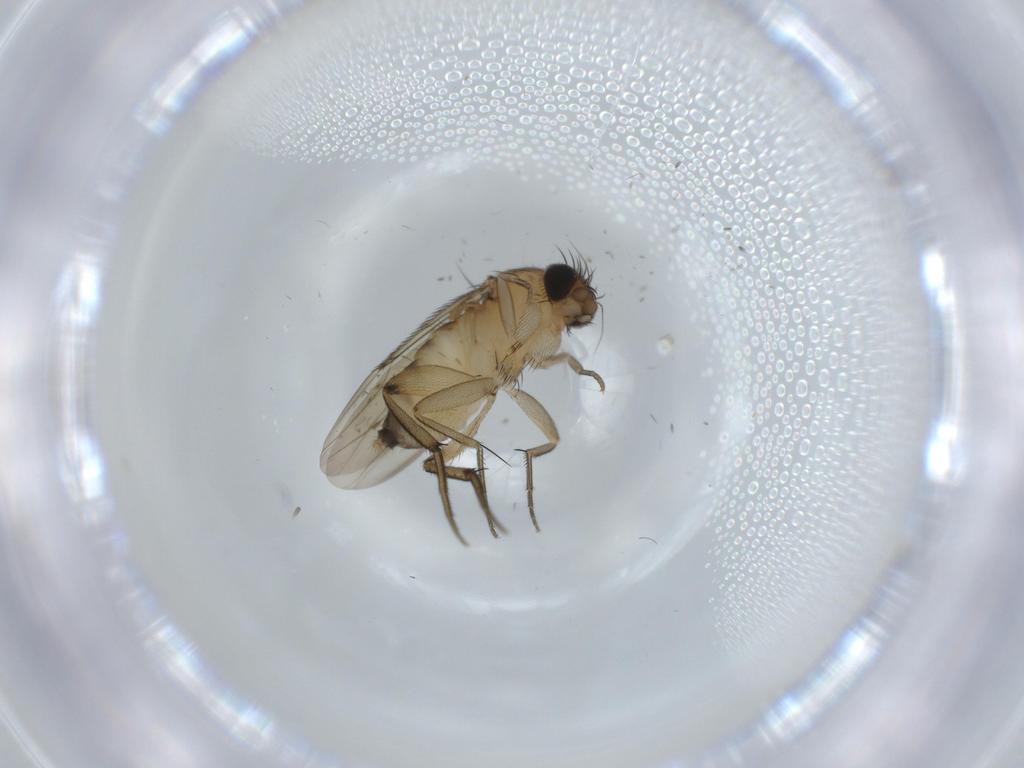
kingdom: Animalia
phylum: Arthropoda
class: Insecta
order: Diptera
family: Phoridae
